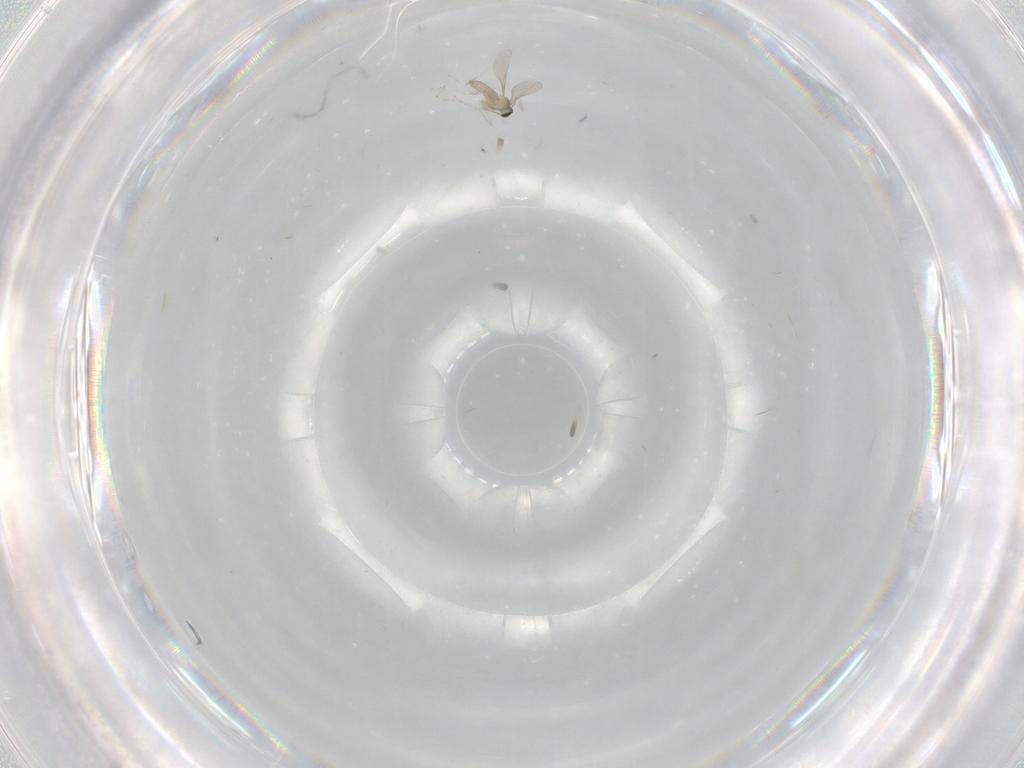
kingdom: Animalia
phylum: Arthropoda
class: Insecta
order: Diptera
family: Cecidomyiidae
